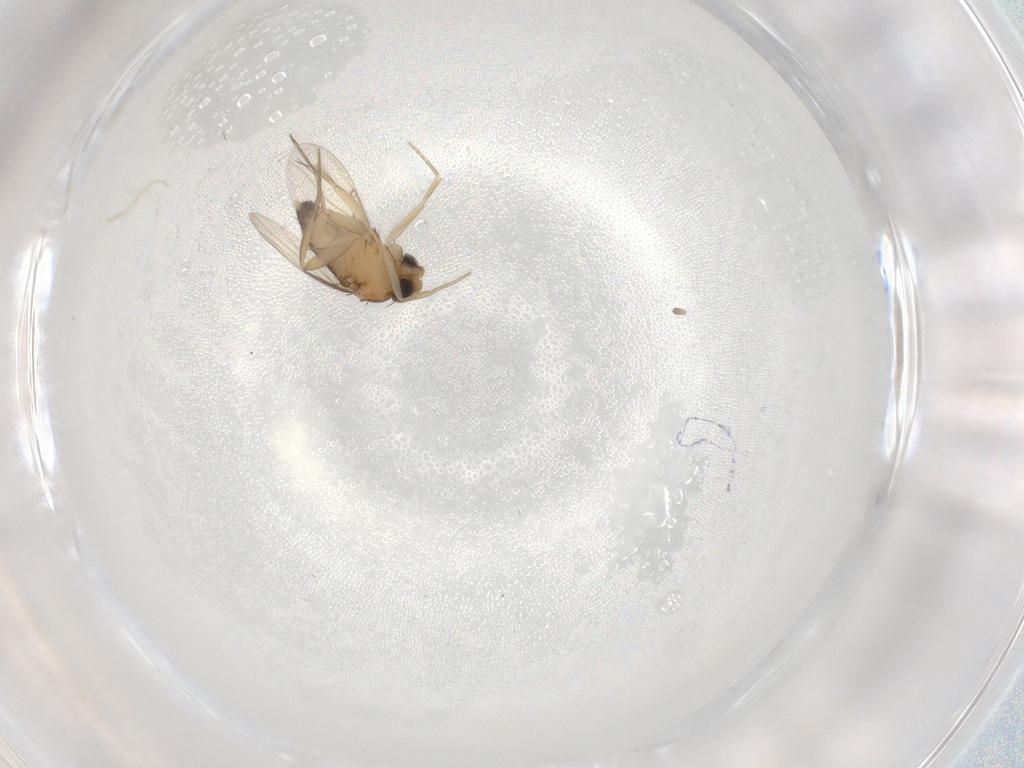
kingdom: Animalia
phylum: Arthropoda
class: Insecta
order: Diptera
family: Phoridae
